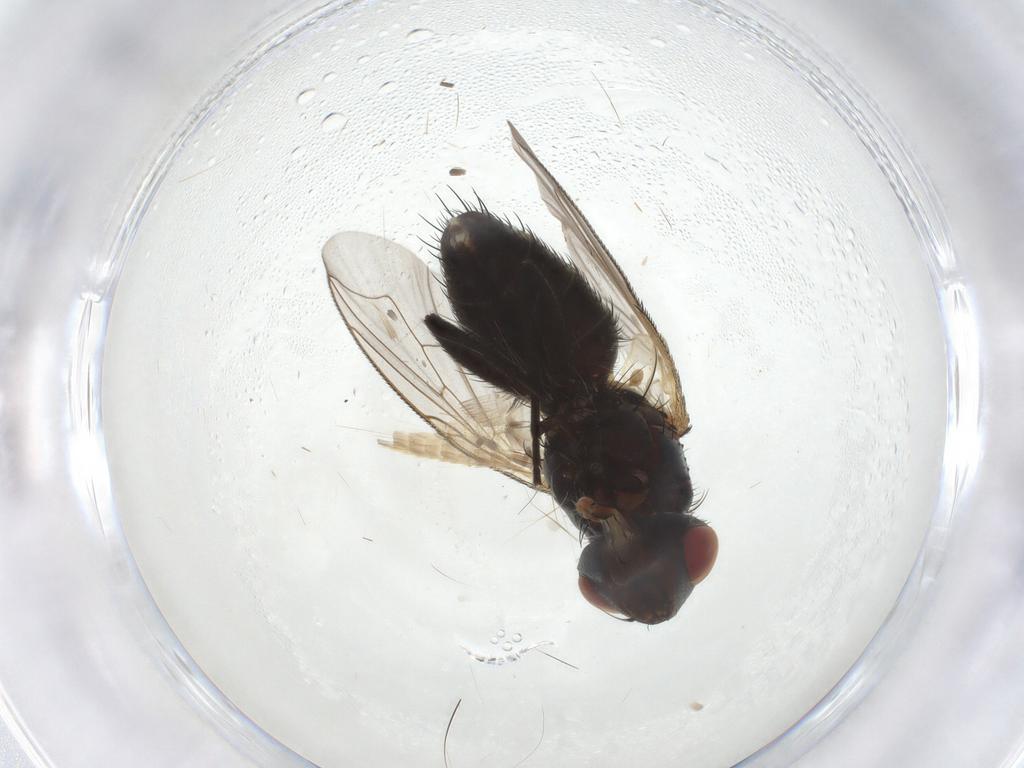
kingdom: Animalia
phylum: Arthropoda
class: Insecta
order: Diptera
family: Sarcophagidae
